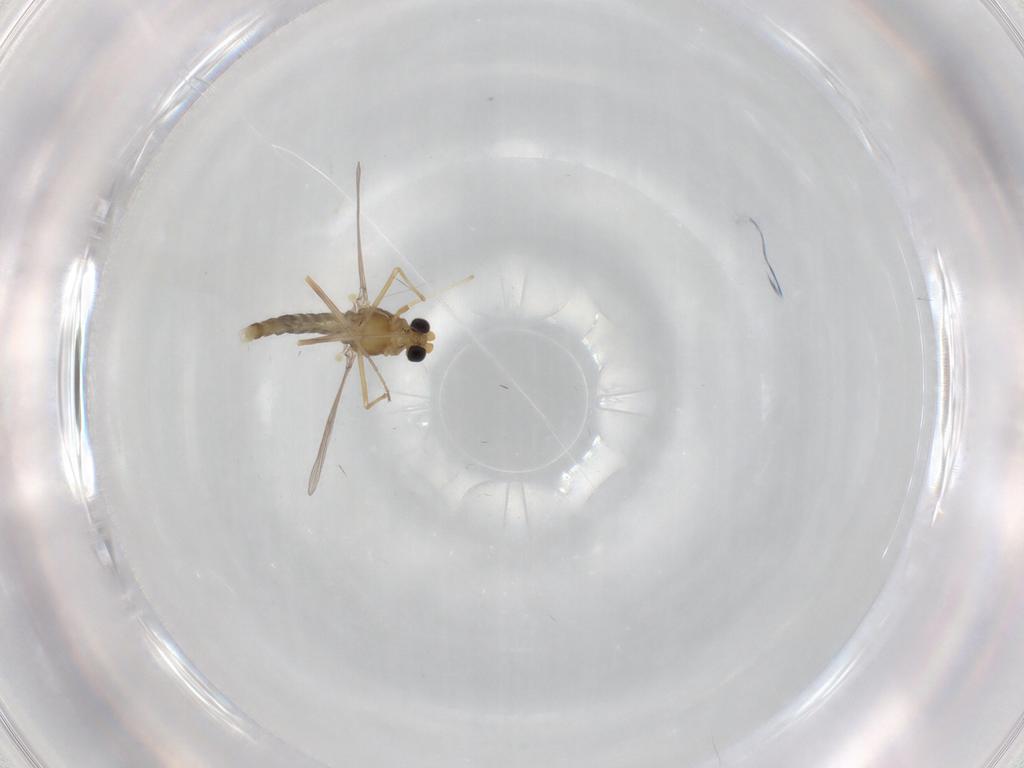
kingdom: Animalia
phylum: Arthropoda
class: Insecta
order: Diptera
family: Chironomidae
